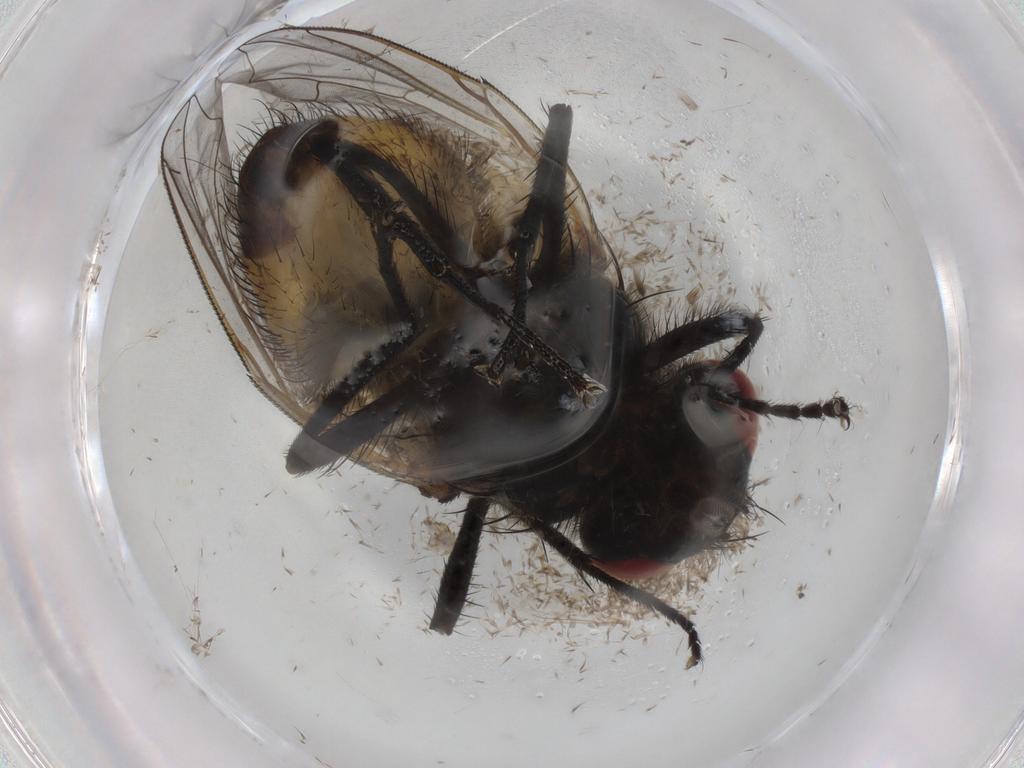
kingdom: Animalia
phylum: Arthropoda
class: Insecta
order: Diptera
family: Muscidae
